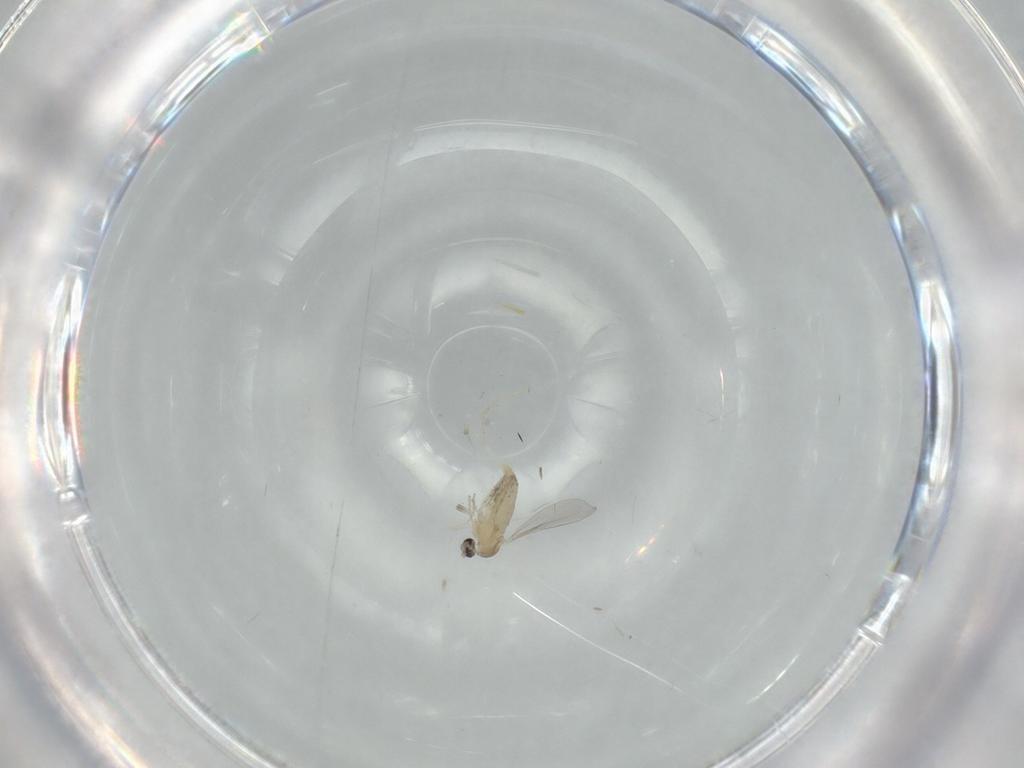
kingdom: Animalia
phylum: Arthropoda
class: Insecta
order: Diptera
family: Cecidomyiidae
